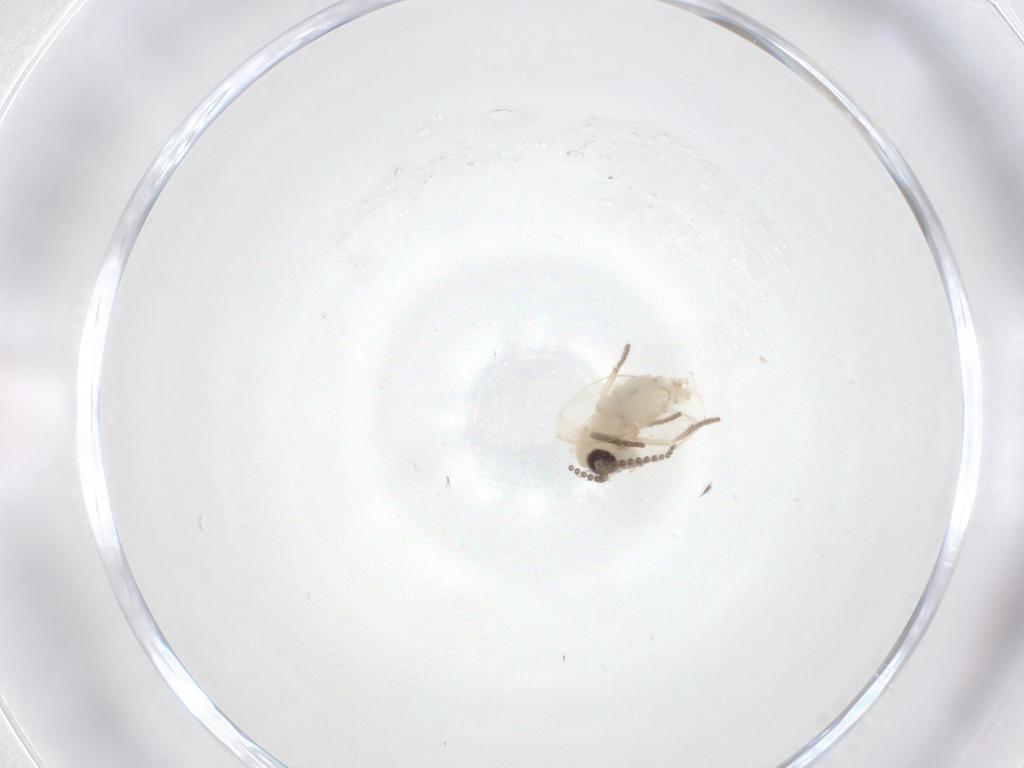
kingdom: Animalia
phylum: Arthropoda
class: Insecta
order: Diptera
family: Psychodidae
